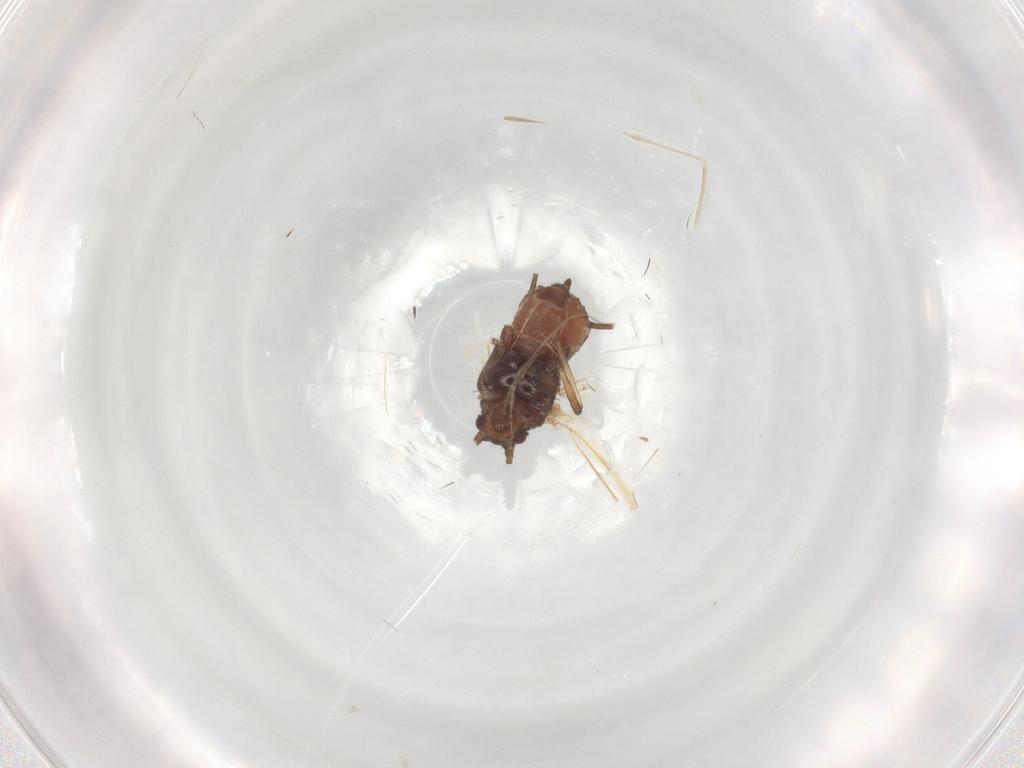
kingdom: Animalia
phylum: Arthropoda
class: Insecta
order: Hemiptera
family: Aphididae
